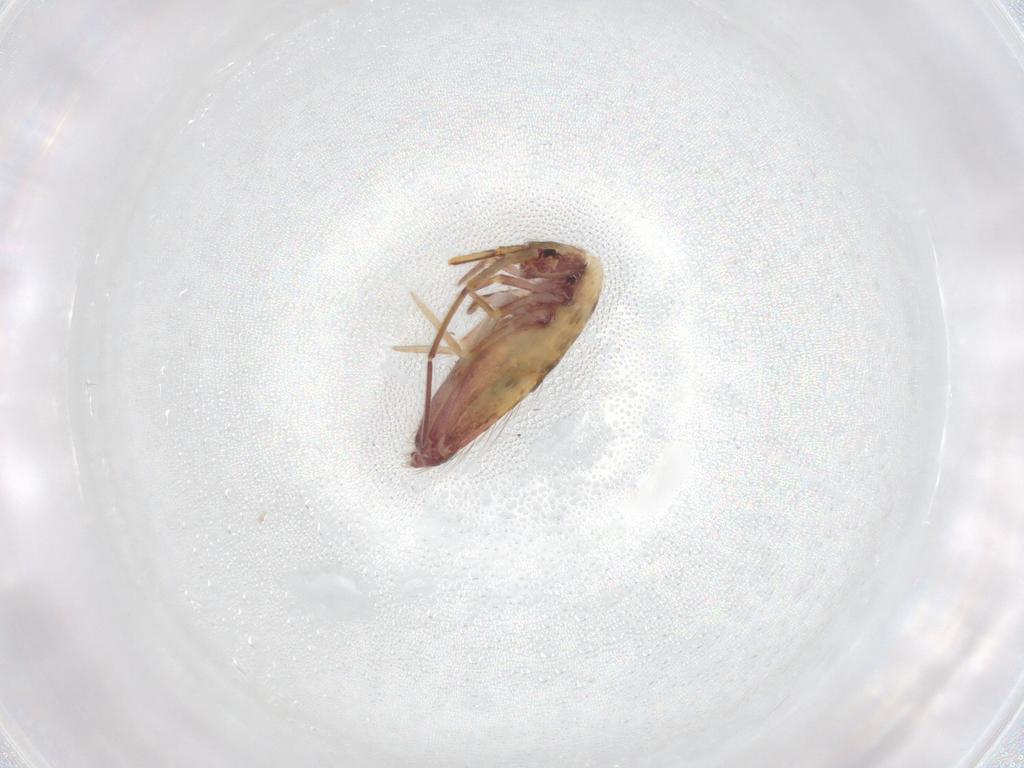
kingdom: Animalia
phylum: Arthropoda
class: Collembola
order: Entomobryomorpha
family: Entomobryidae
